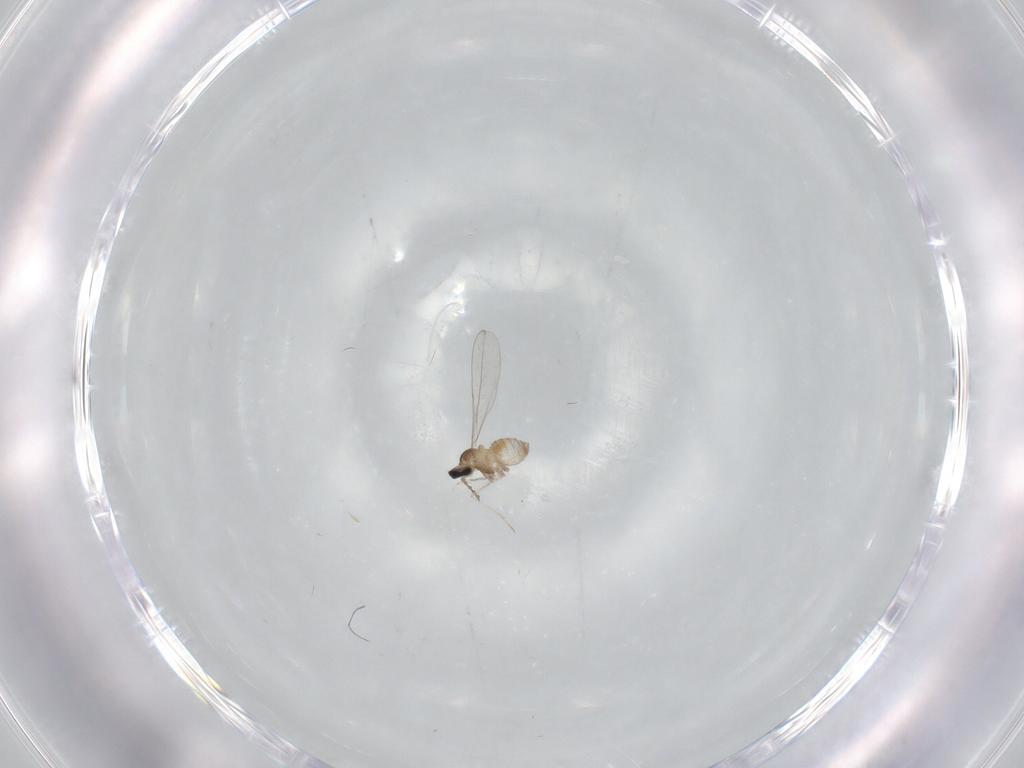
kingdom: Animalia
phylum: Arthropoda
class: Insecta
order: Diptera
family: Cecidomyiidae
